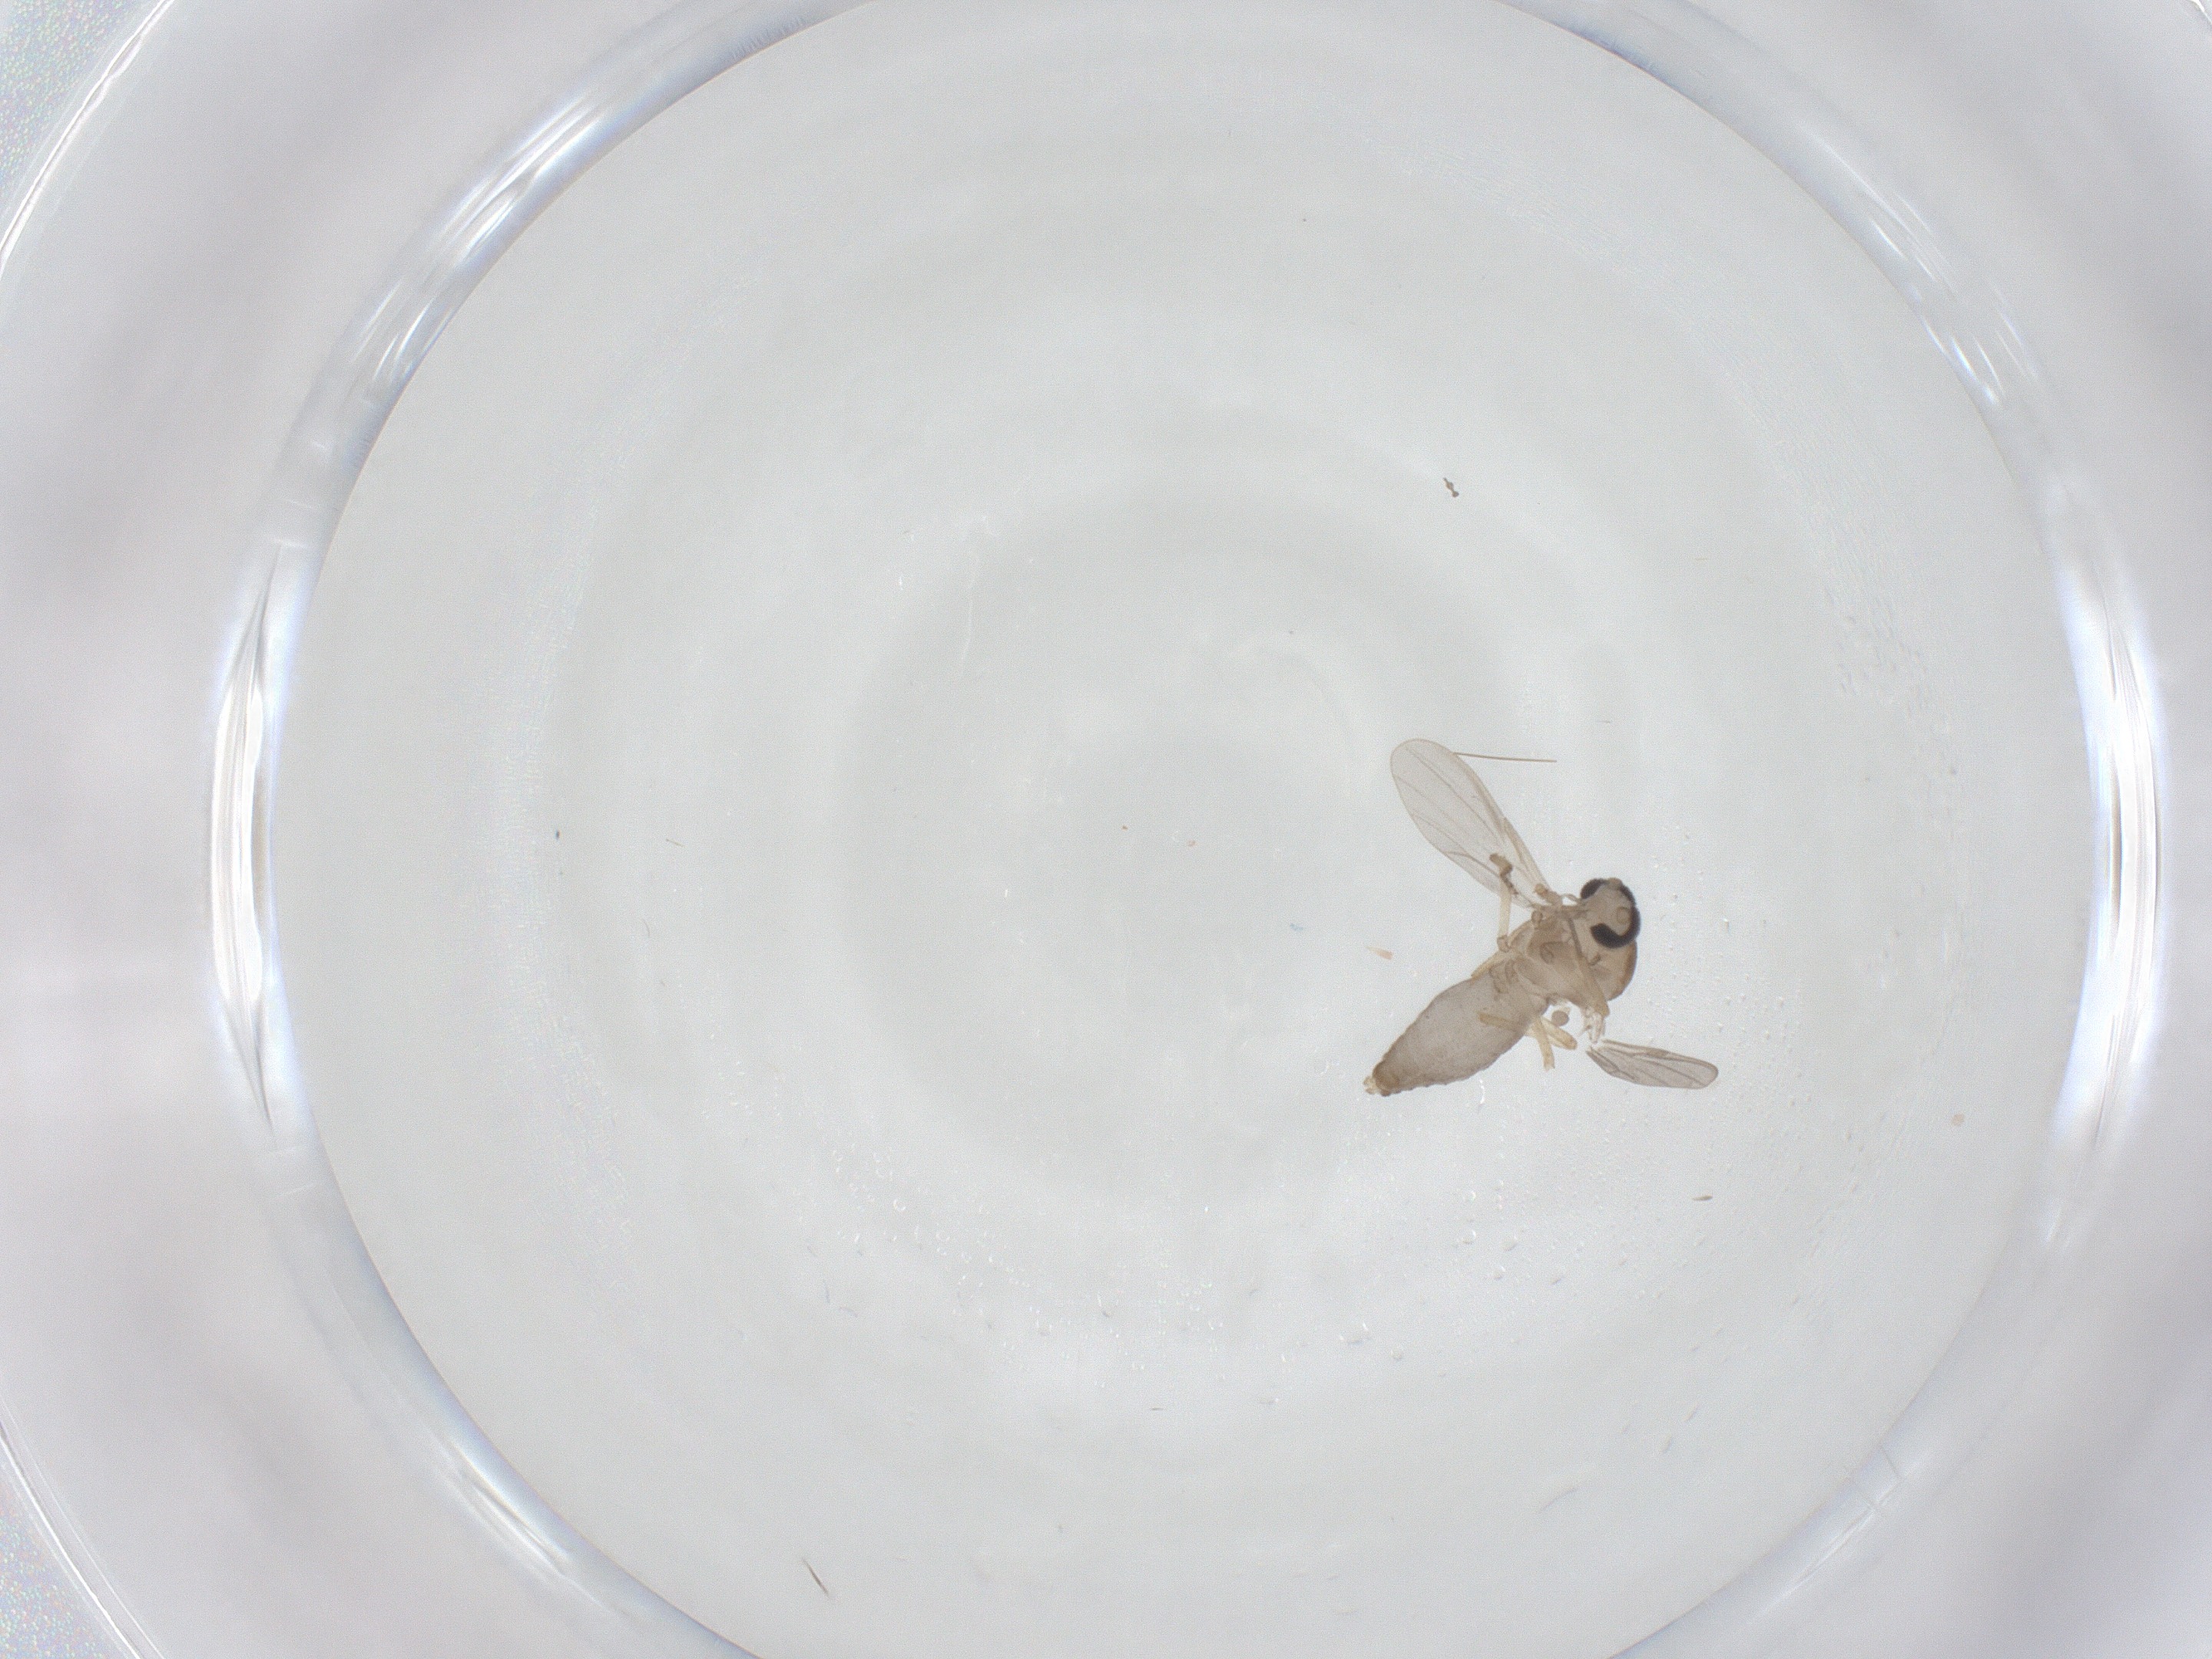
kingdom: Animalia
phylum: Arthropoda
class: Insecta
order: Diptera
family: Ceratopogonidae
